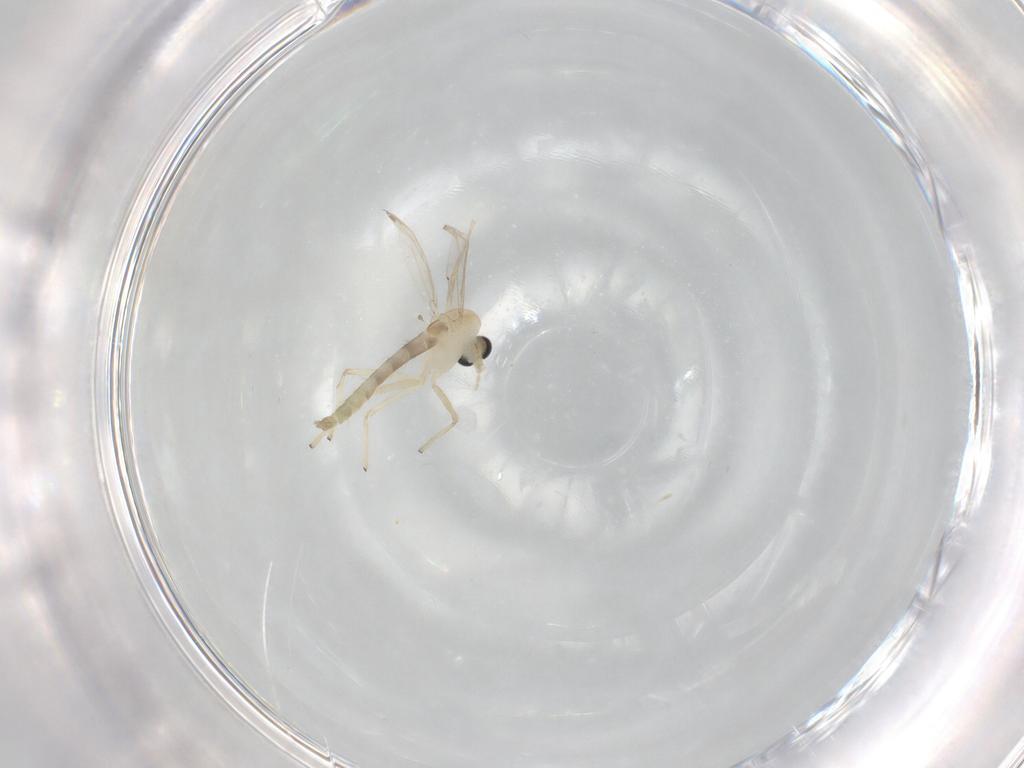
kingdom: Animalia
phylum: Arthropoda
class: Insecta
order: Diptera
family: Chironomidae
